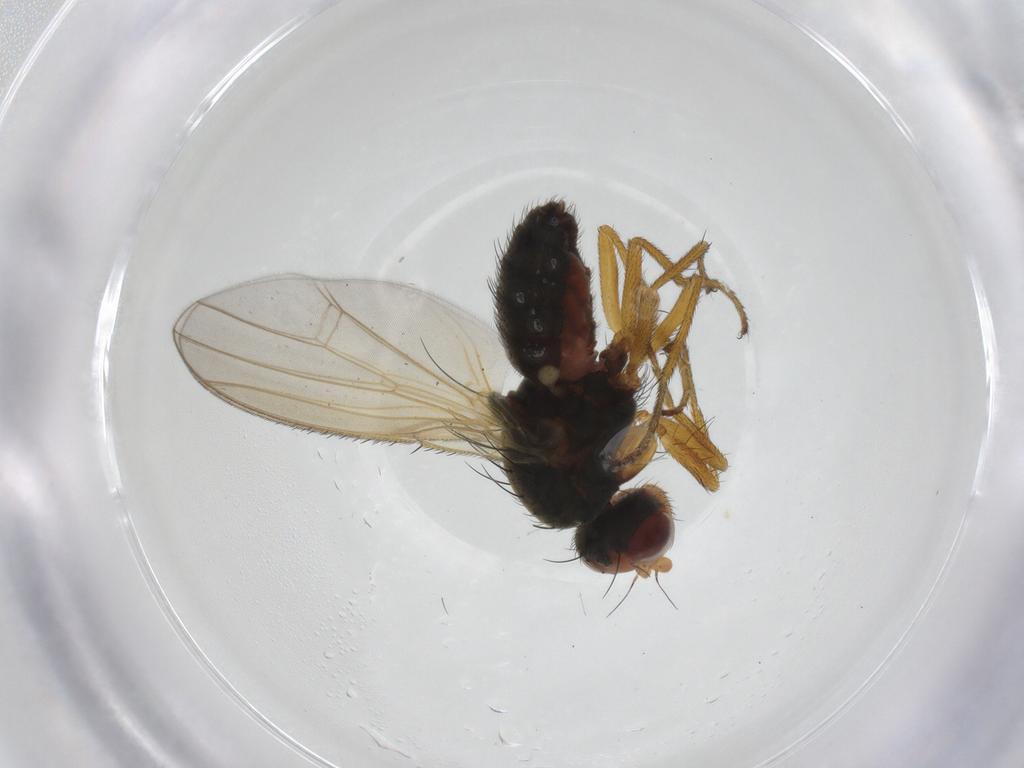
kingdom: Animalia
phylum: Arthropoda
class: Insecta
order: Diptera
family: Heleomyzidae
